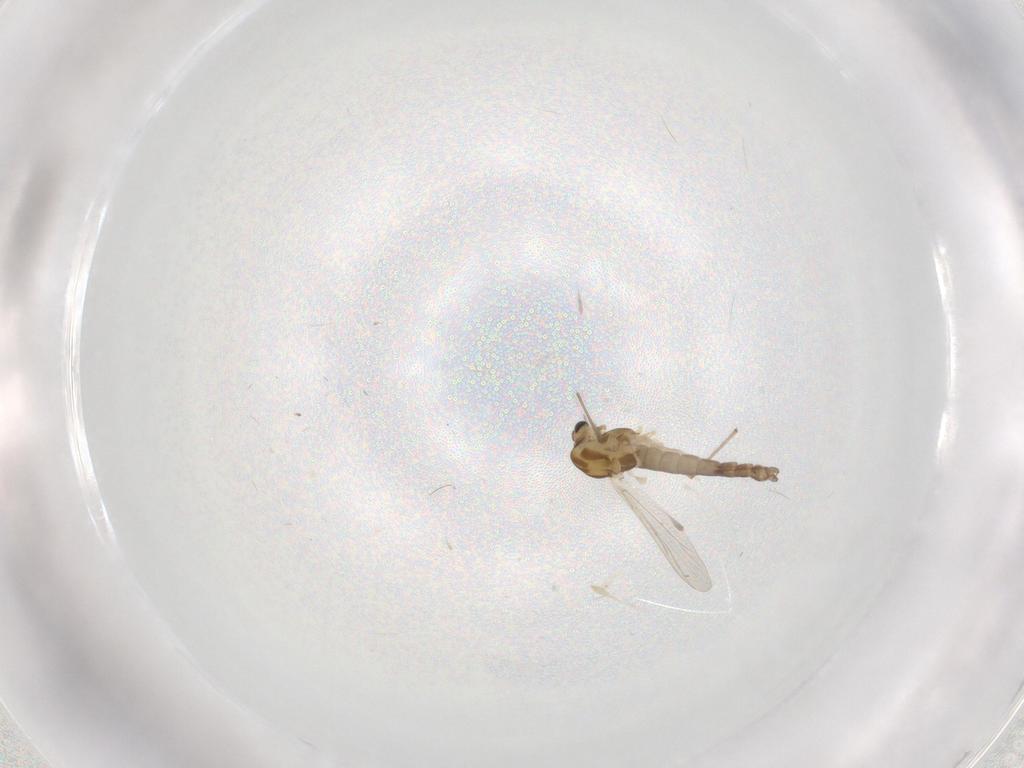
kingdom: Animalia
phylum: Arthropoda
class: Insecta
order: Diptera
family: Chironomidae
